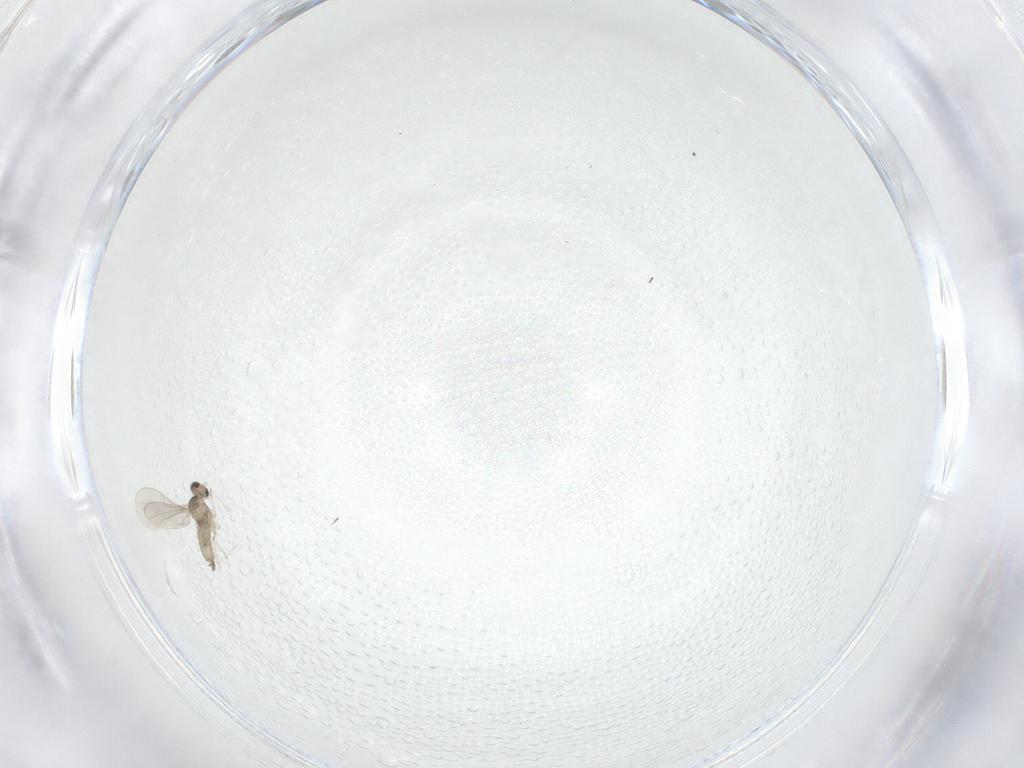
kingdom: Animalia
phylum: Arthropoda
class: Insecta
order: Diptera
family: Cecidomyiidae
